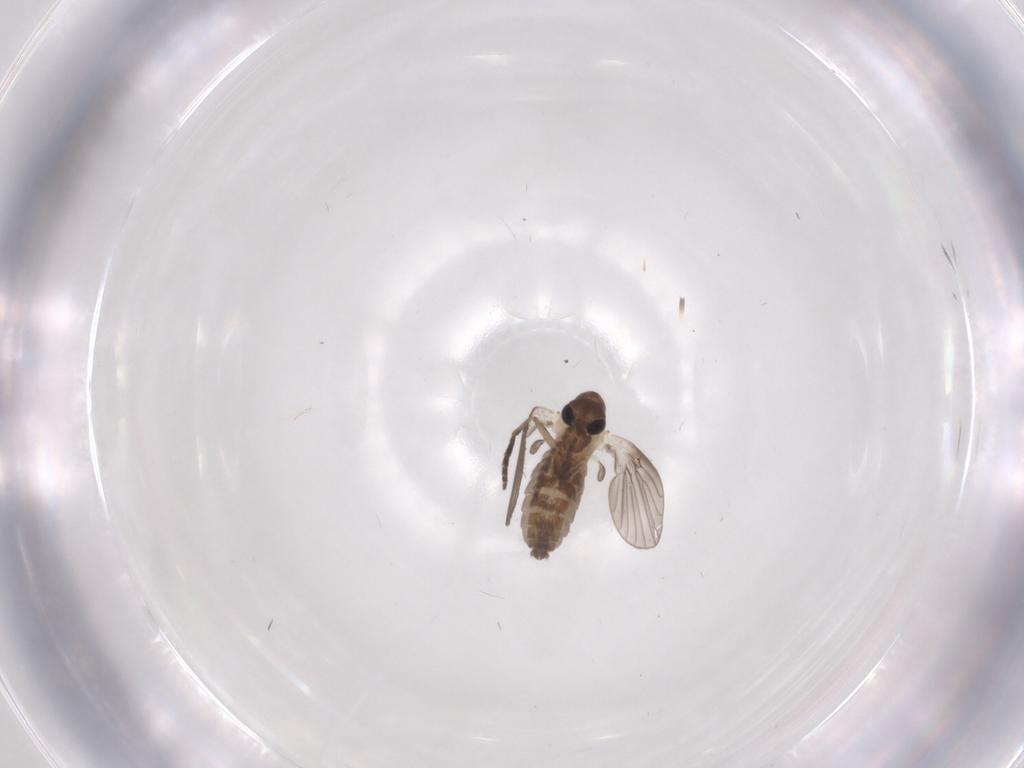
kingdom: Animalia
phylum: Arthropoda
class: Insecta
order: Diptera
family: Psychodidae
